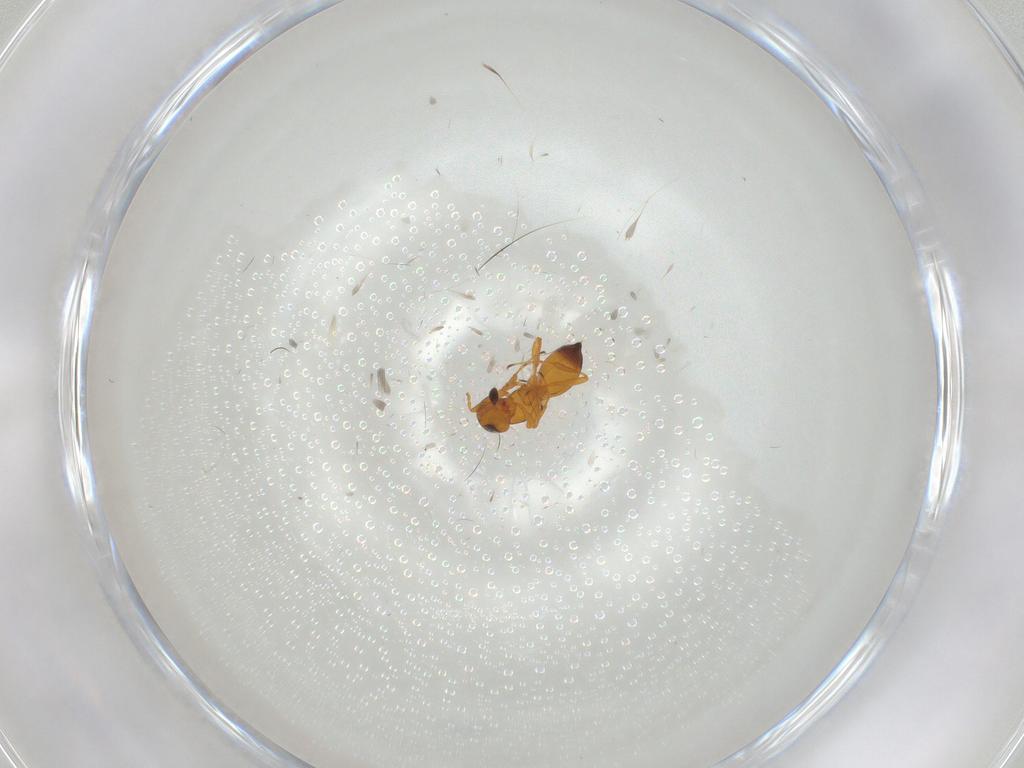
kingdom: Animalia
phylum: Arthropoda
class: Insecta
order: Hymenoptera
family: Platygastridae
